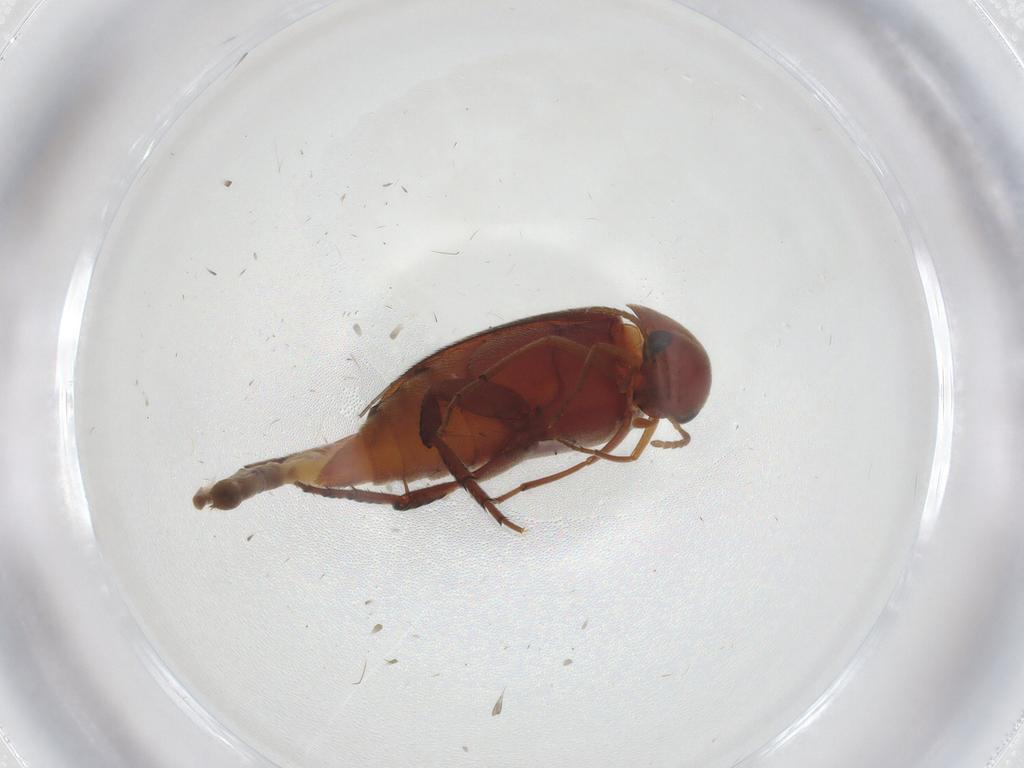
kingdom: Animalia
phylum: Arthropoda
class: Insecta
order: Coleoptera
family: Mordellidae
